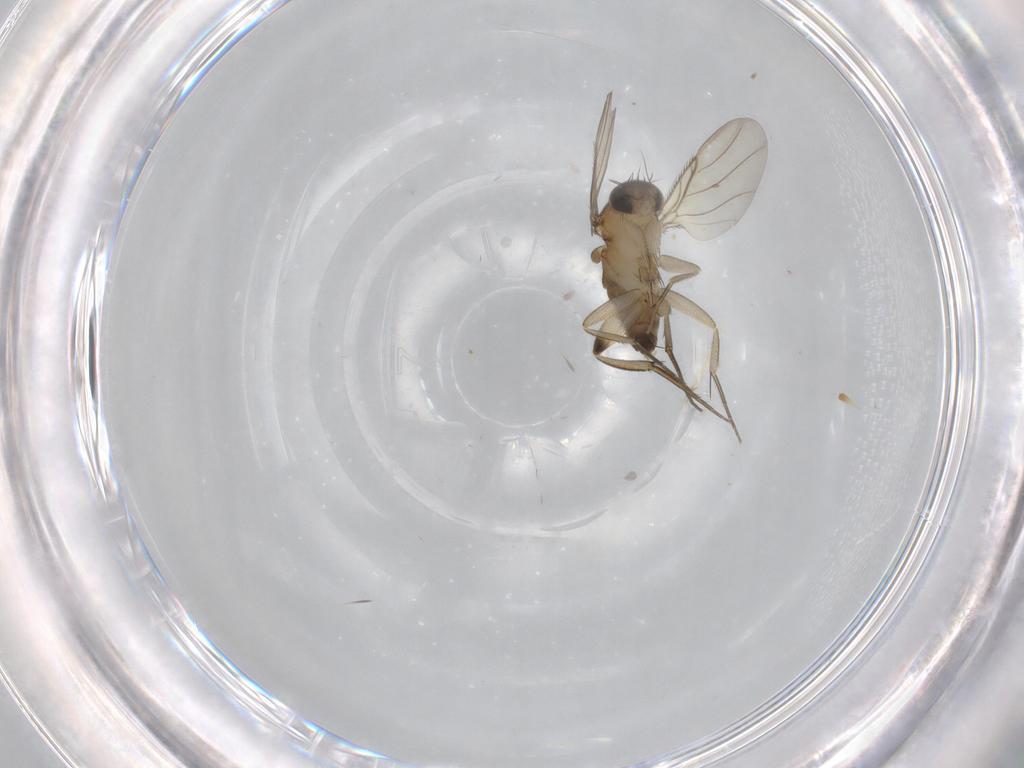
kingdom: Animalia
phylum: Arthropoda
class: Insecta
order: Diptera
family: Phoridae
